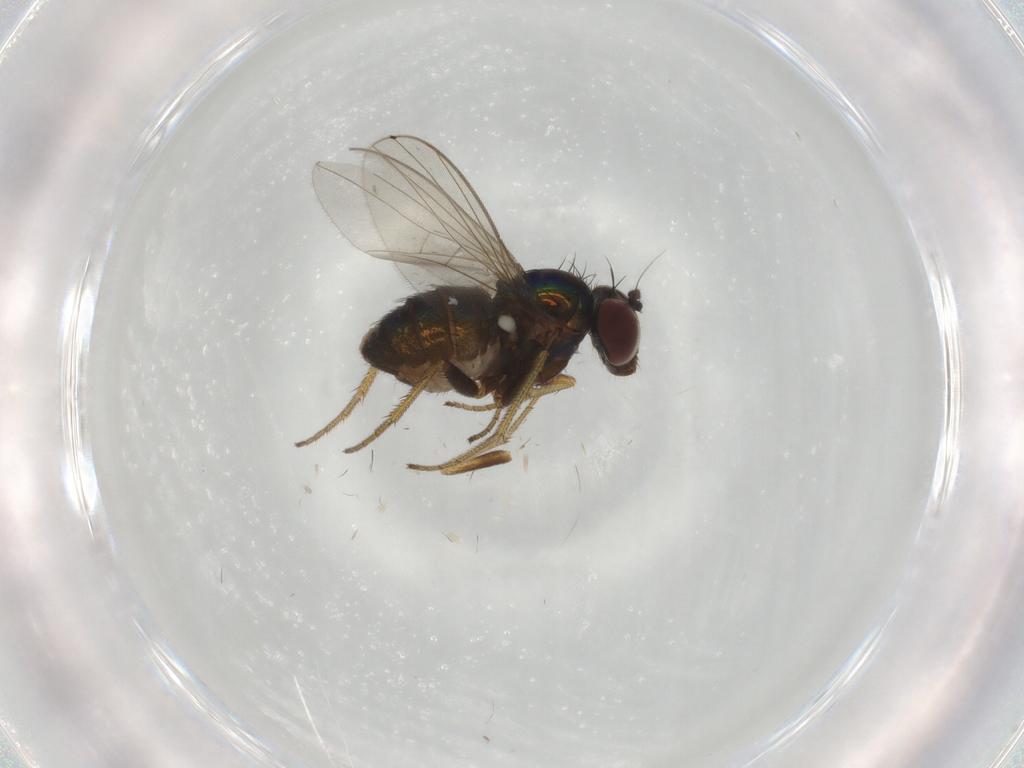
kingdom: Animalia
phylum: Arthropoda
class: Insecta
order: Diptera
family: Dolichopodidae
